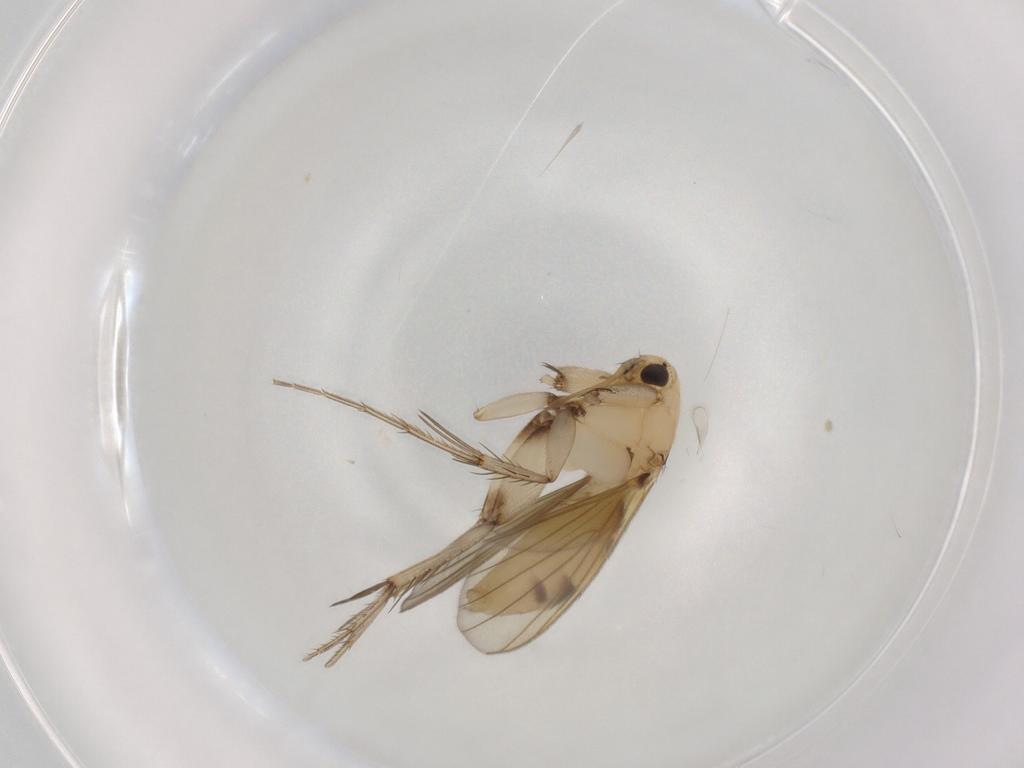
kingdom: Animalia
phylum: Arthropoda
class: Insecta
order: Diptera
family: Mycetophilidae
